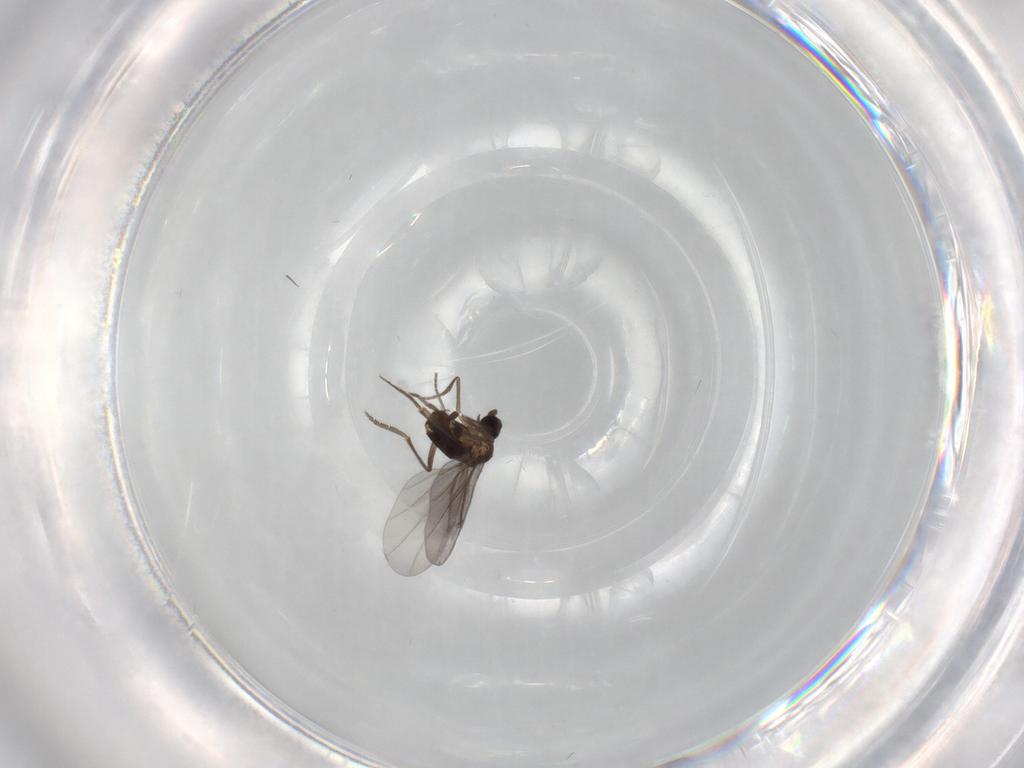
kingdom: Animalia
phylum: Arthropoda
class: Insecta
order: Diptera
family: Phoridae
